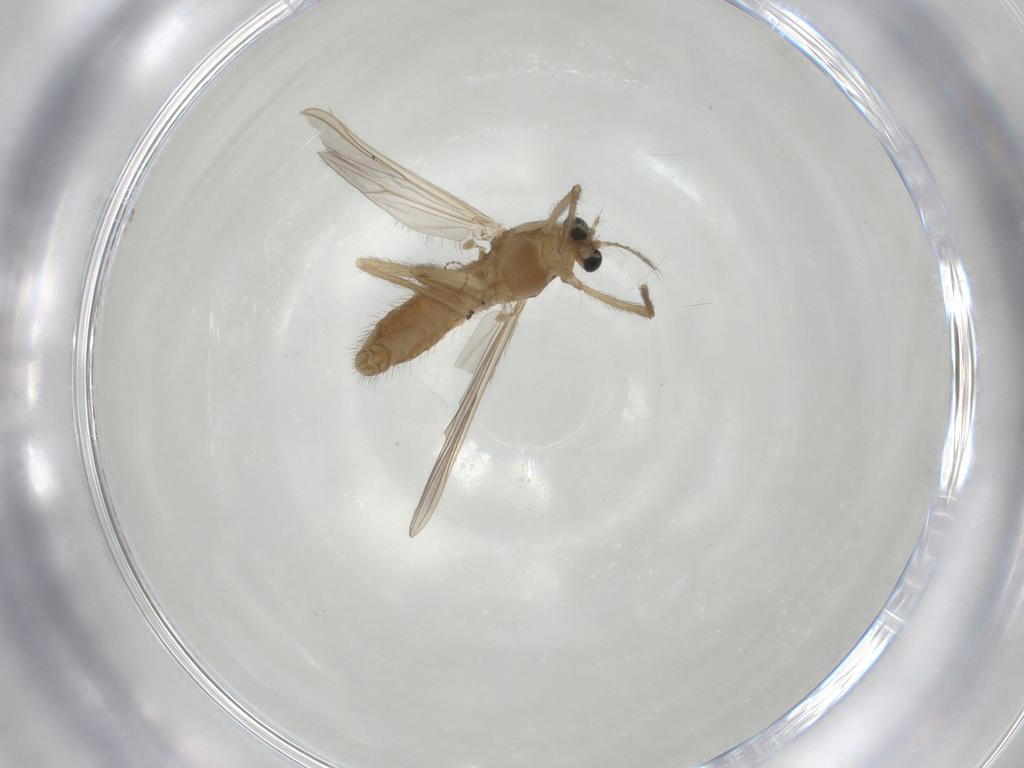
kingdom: Animalia
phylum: Arthropoda
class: Insecta
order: Diptera
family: Chironomidae
